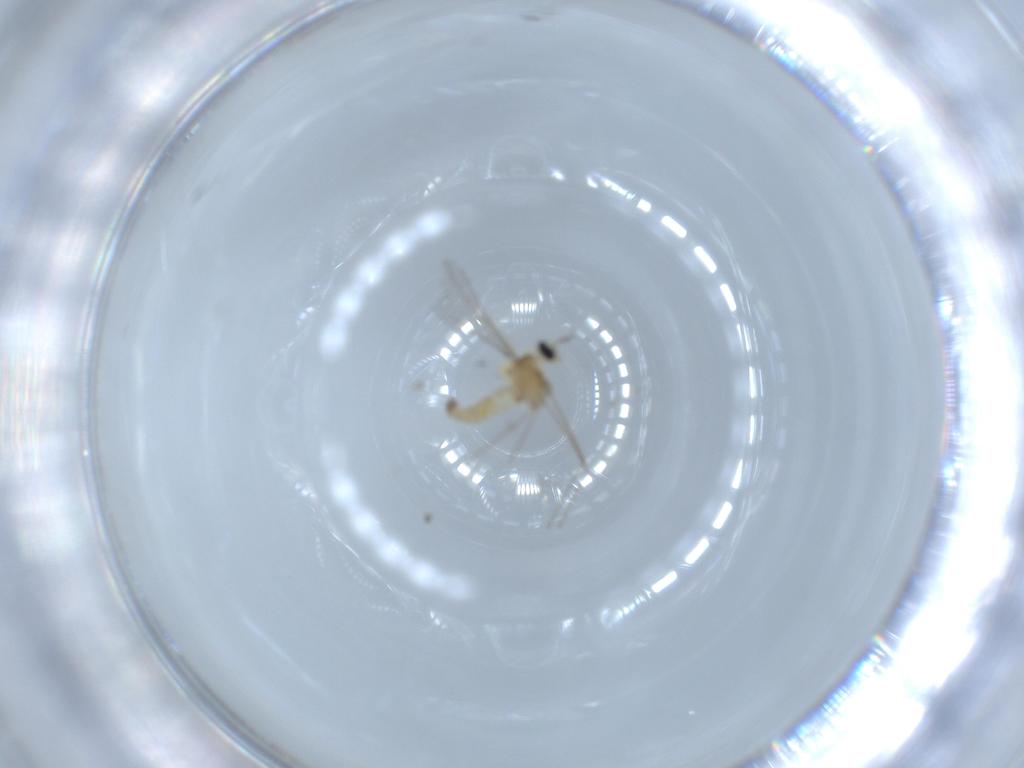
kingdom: Animalia
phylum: Arthropoda
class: Insecta
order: Diptera
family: Cecidomyiidae
